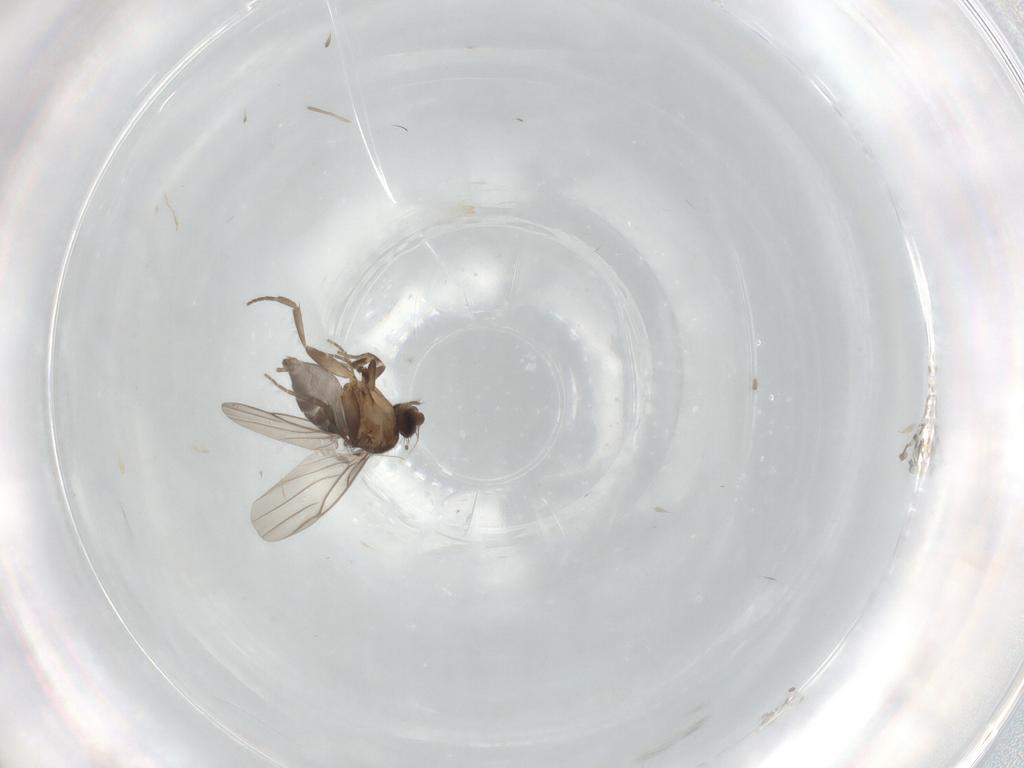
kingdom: Animalia
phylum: Arthropoda
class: Insecta
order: Diptera
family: Phoridae
